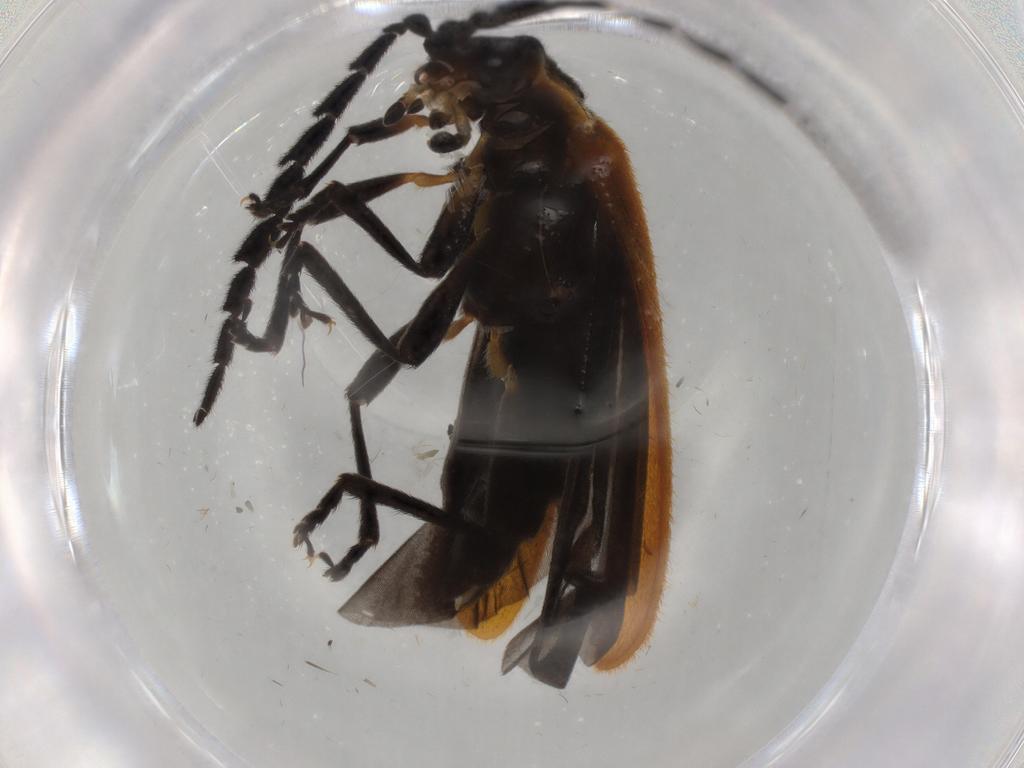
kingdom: Animalia
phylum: Arthropoda
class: Insecta
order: Coleoptera
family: Lycidae
